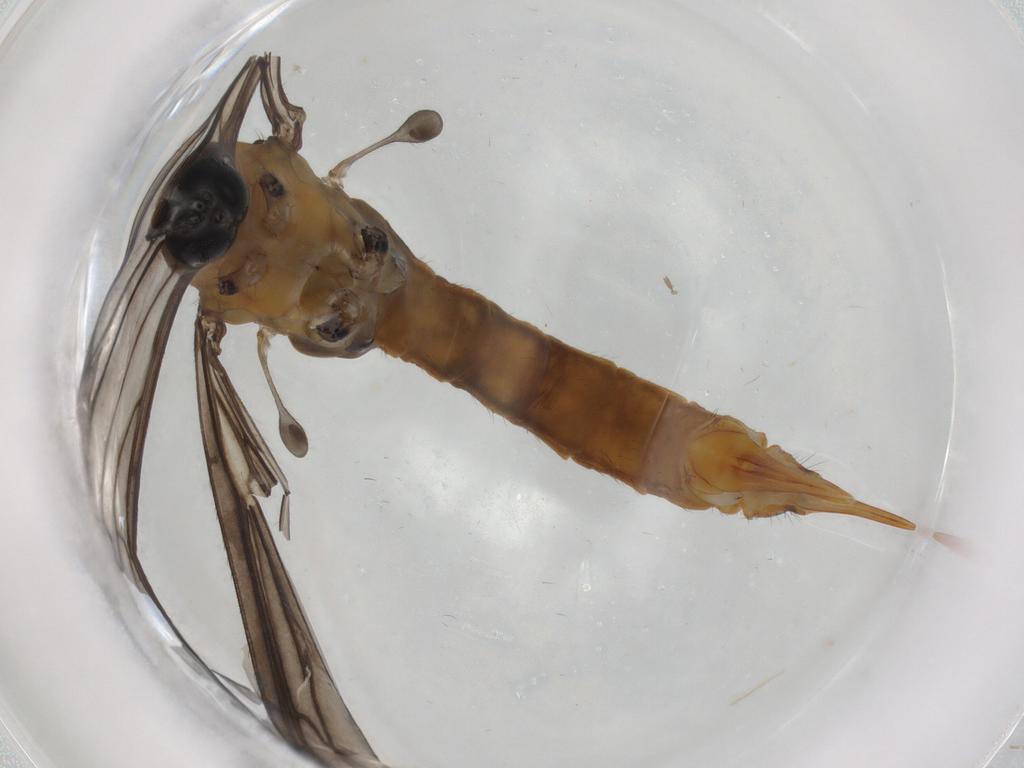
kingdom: Animalia
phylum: Arthropoda
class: Insecta
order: Diptera
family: Limoniidae
